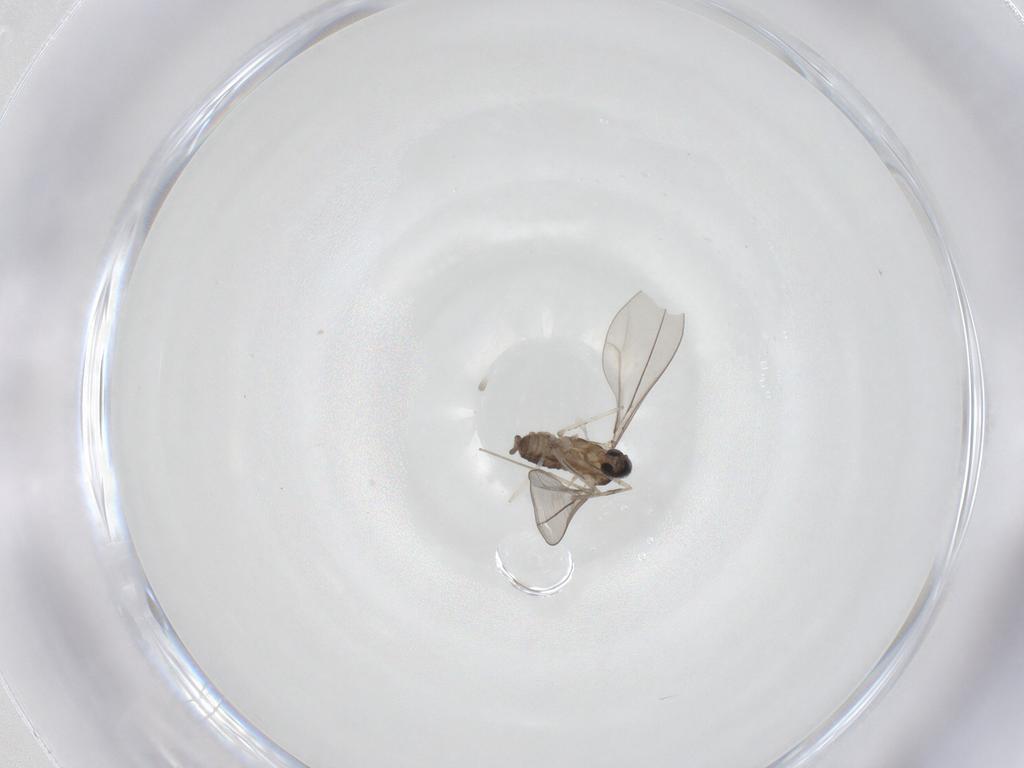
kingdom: Animalia
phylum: Arthropoda
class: Insecta
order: Diptera
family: Cecidomyiidae
